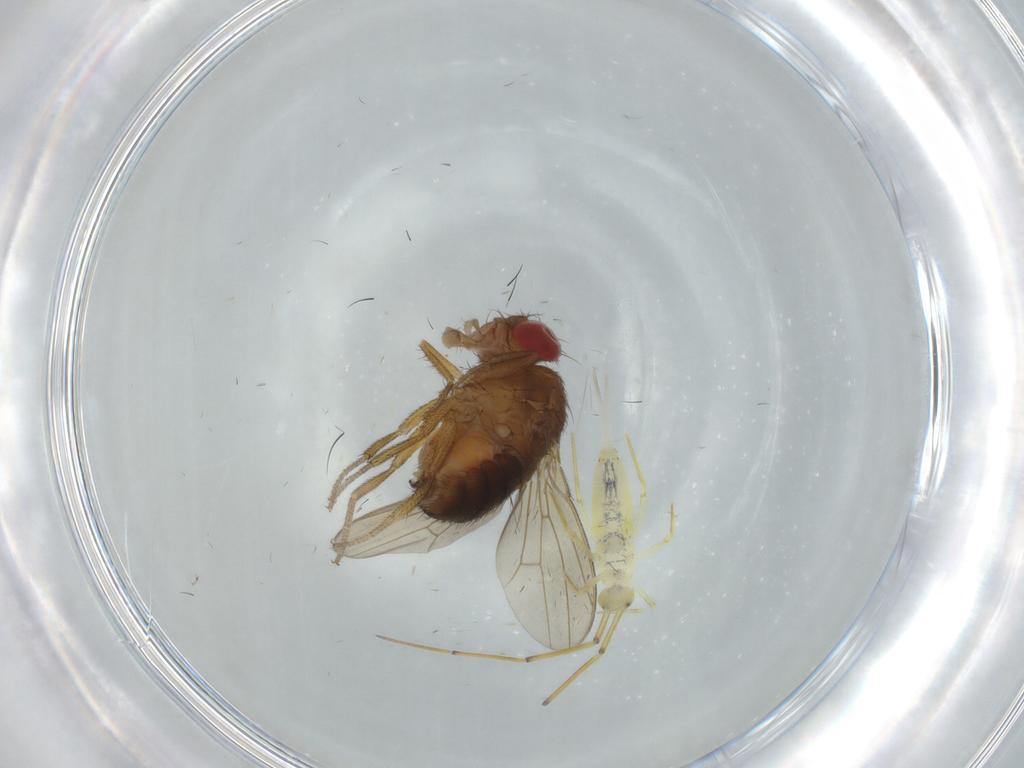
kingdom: Animalia
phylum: Arthropoda
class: Insecta
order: Diptera
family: Drosophilidae
